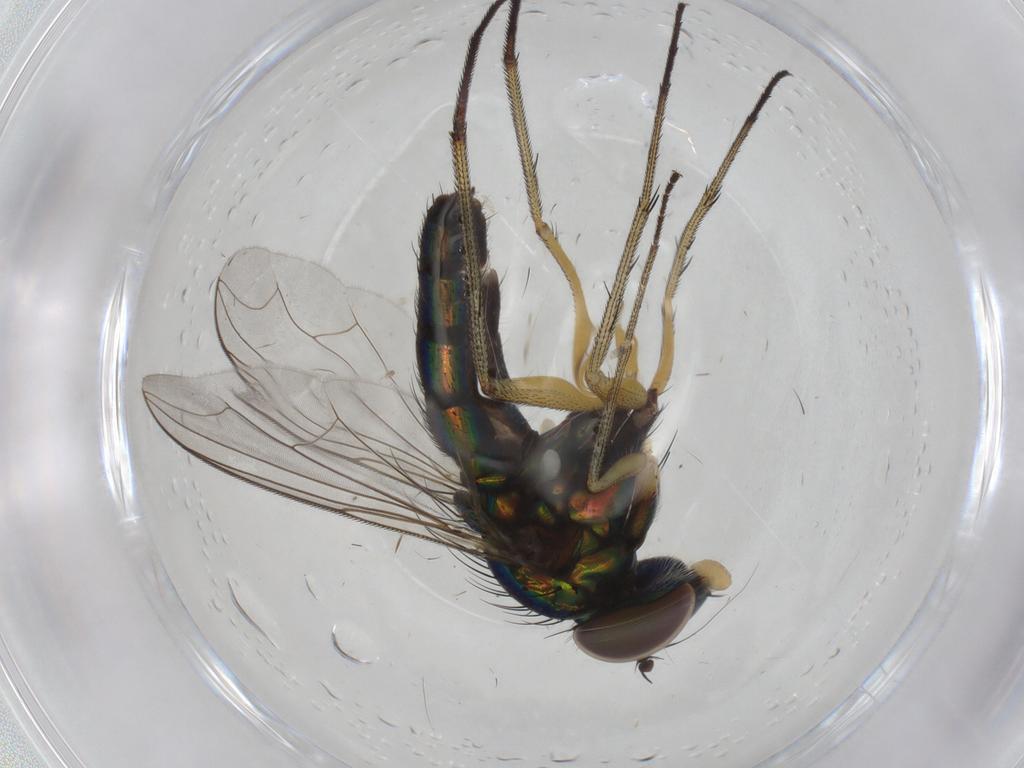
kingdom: Animalia
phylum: Arthropoda
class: Insecta
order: Diptera
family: Dolichopodidae
